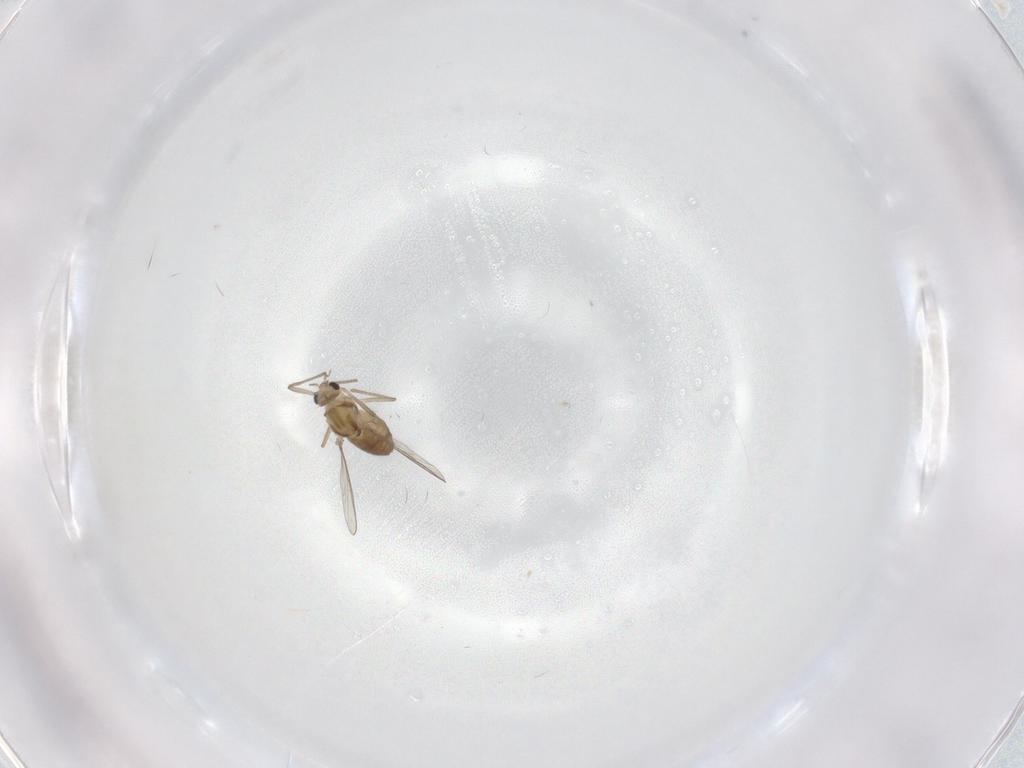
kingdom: Animalia
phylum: Arthropoda
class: Insecta
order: Diptera
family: Chironomidae
